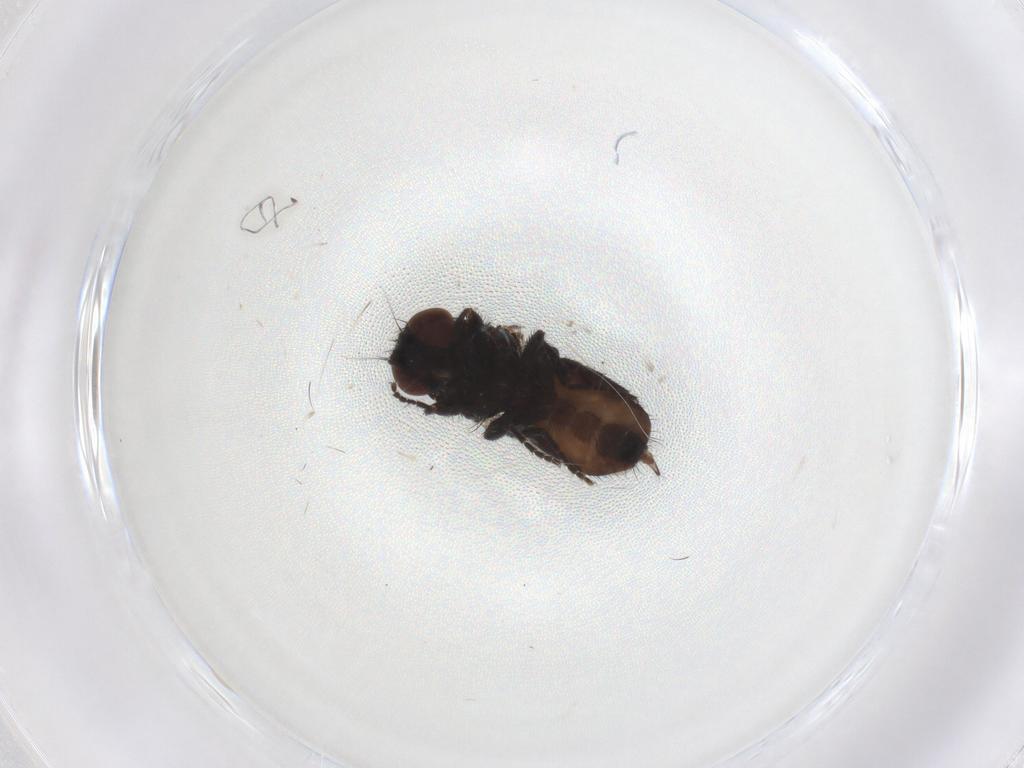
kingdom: Animalia
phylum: Arthropoda
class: Insecta
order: Diptera
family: Milichiidae
